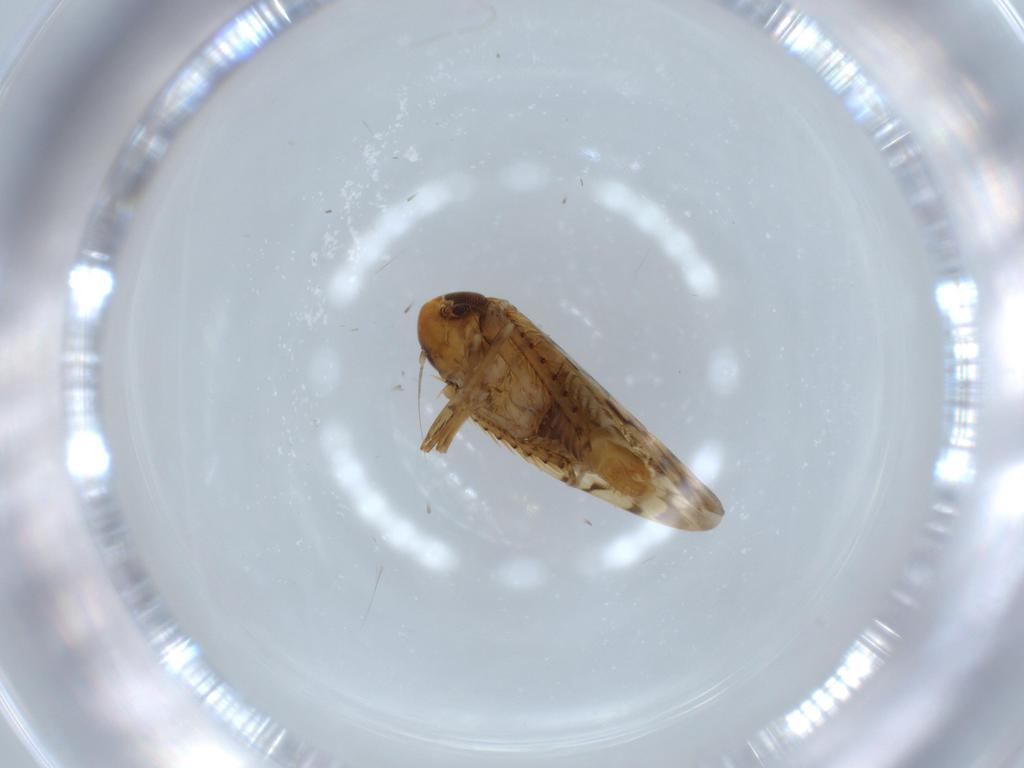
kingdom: Animalia
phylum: Arthropoda
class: Insecta
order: Hemiptera
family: Cicadellidae
